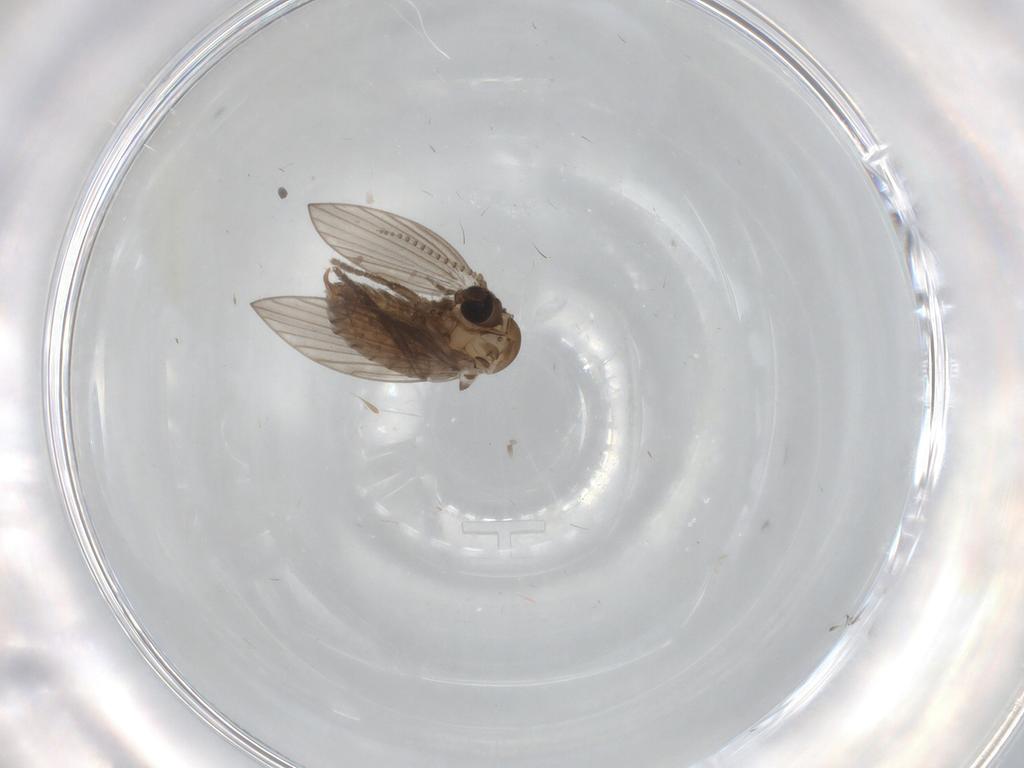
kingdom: Animalia
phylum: Arthropoda
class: Insecta
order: Diptera
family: Psychodidae
